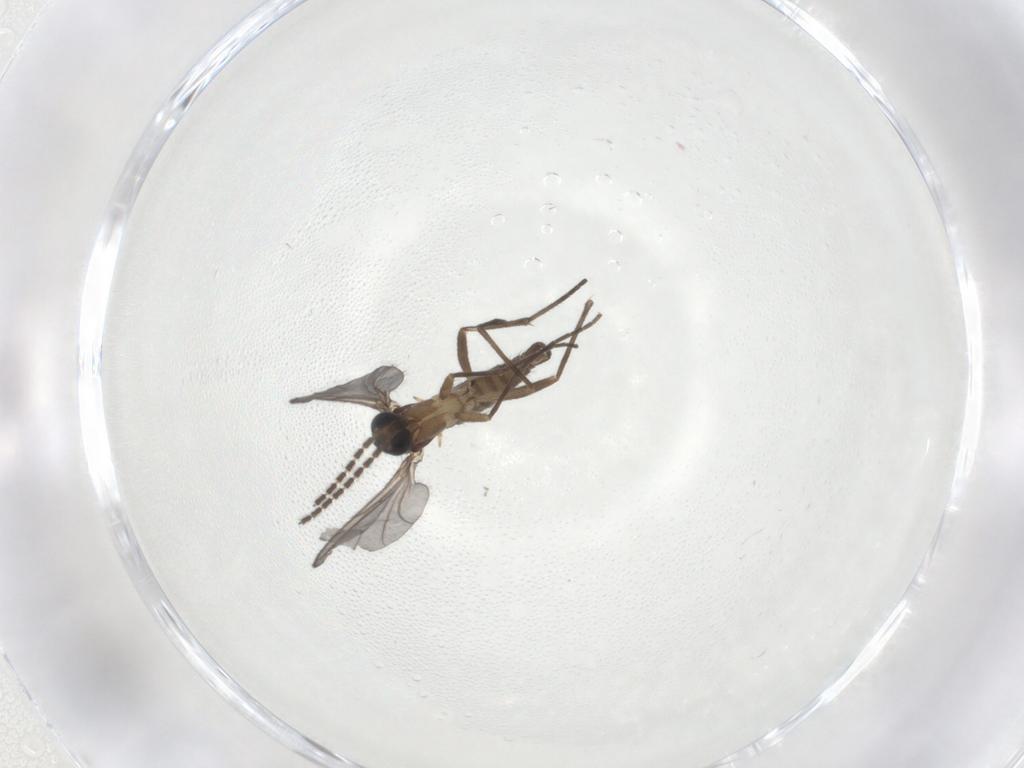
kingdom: Animalia
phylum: Arthropoda
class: Insecta
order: Diptera
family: Sciaridae
